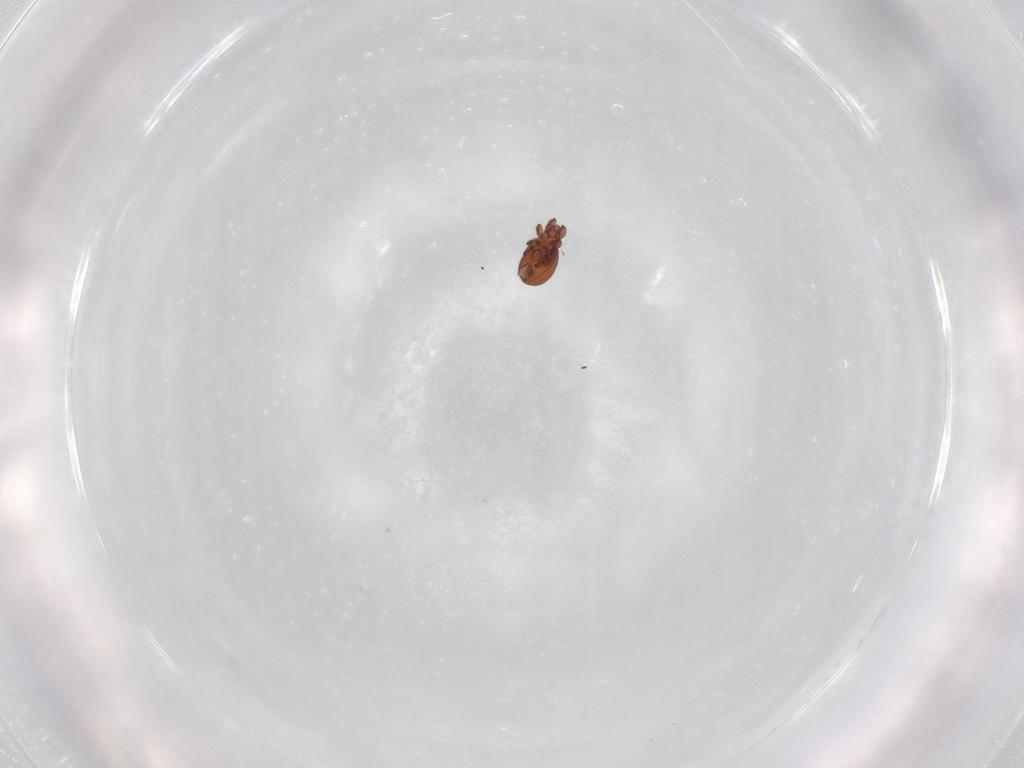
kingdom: Animalia
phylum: Arthropoda
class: Arachnida
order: Sarcoptiformes
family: Eremaeidae
